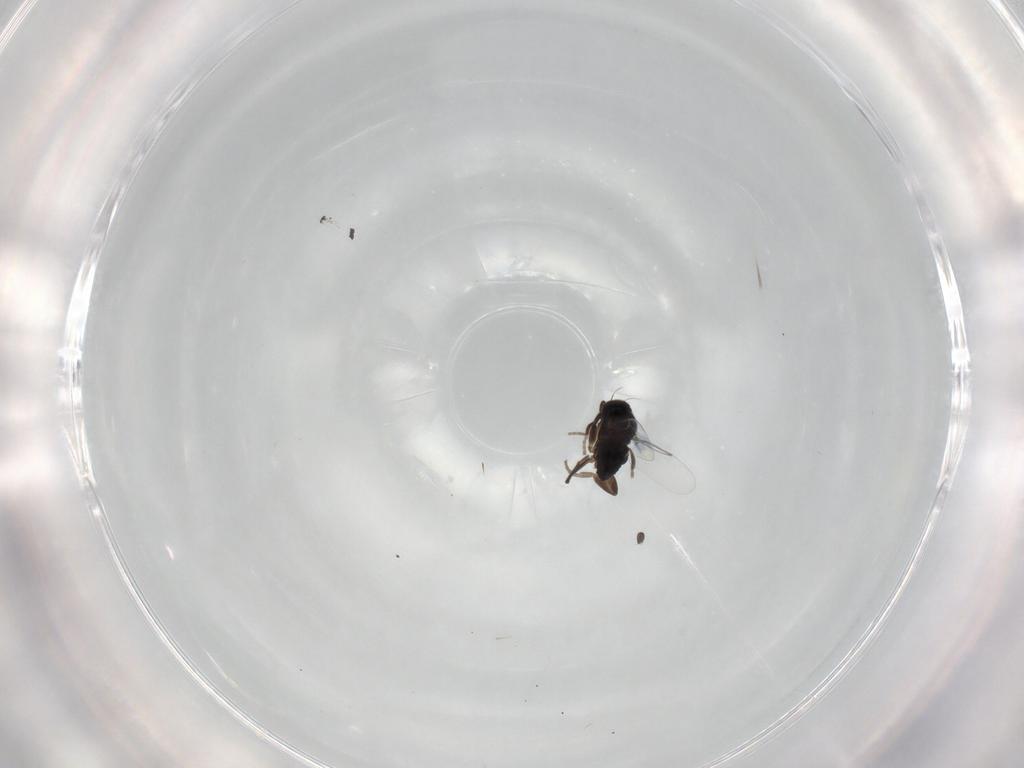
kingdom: Animalia
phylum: Arthropoda
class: Insecta
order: Diptera
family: Phoridae
